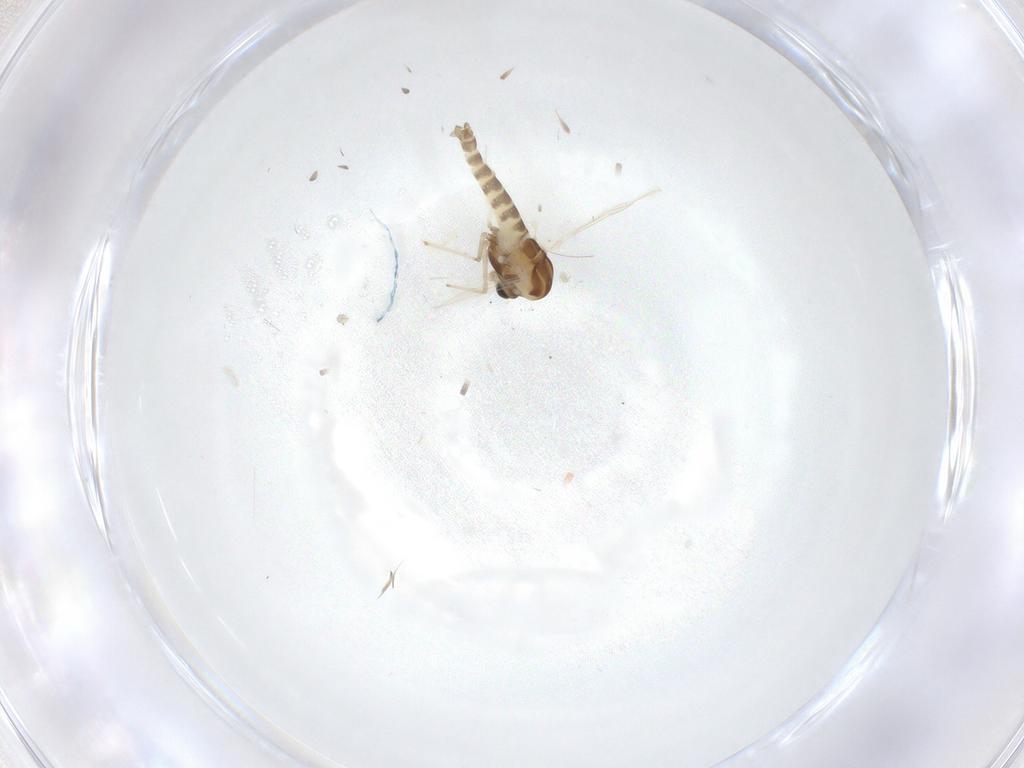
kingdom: Animalia
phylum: Arthropoda
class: Insecta
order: Diptera
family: Chironomidae
